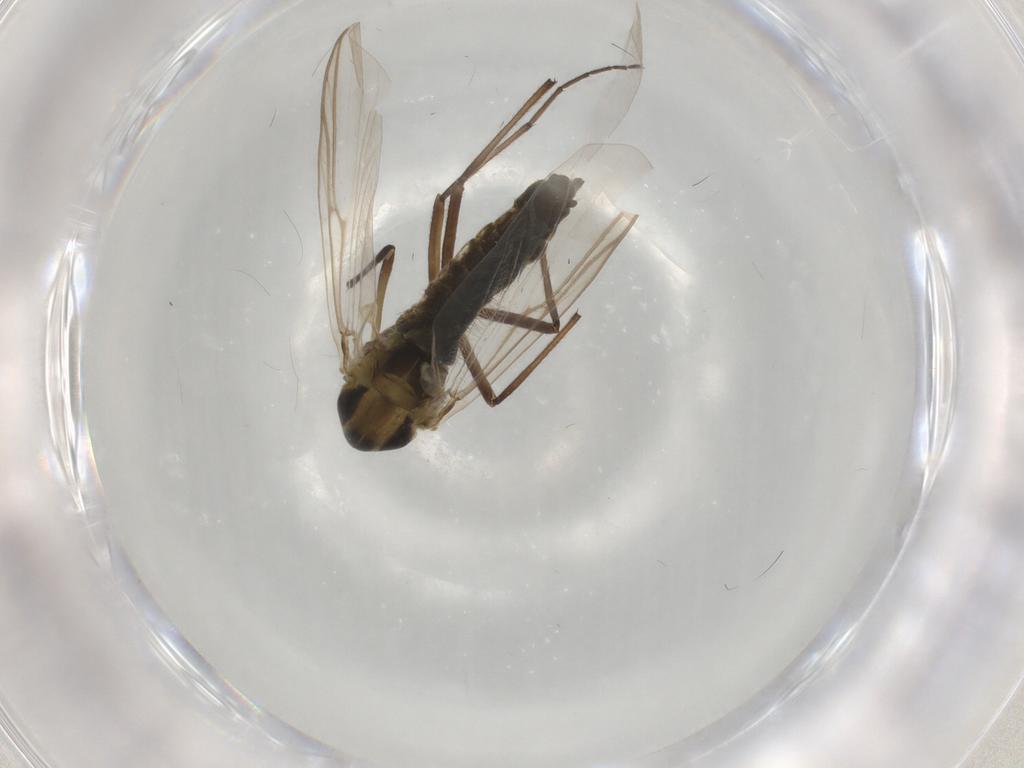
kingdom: Animalia
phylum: Arthropoda
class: Insecta
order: Diptera
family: Chironomidae
